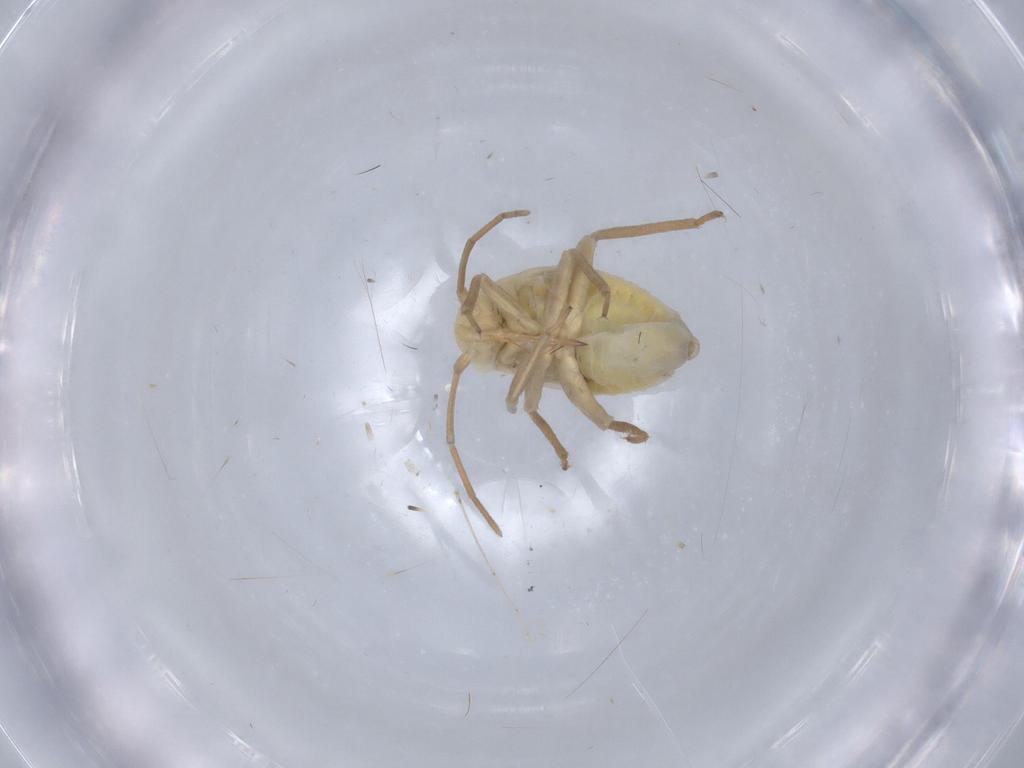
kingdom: Animalia
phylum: Arthropoda
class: Insecta
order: Hemiptera
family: Miridae
